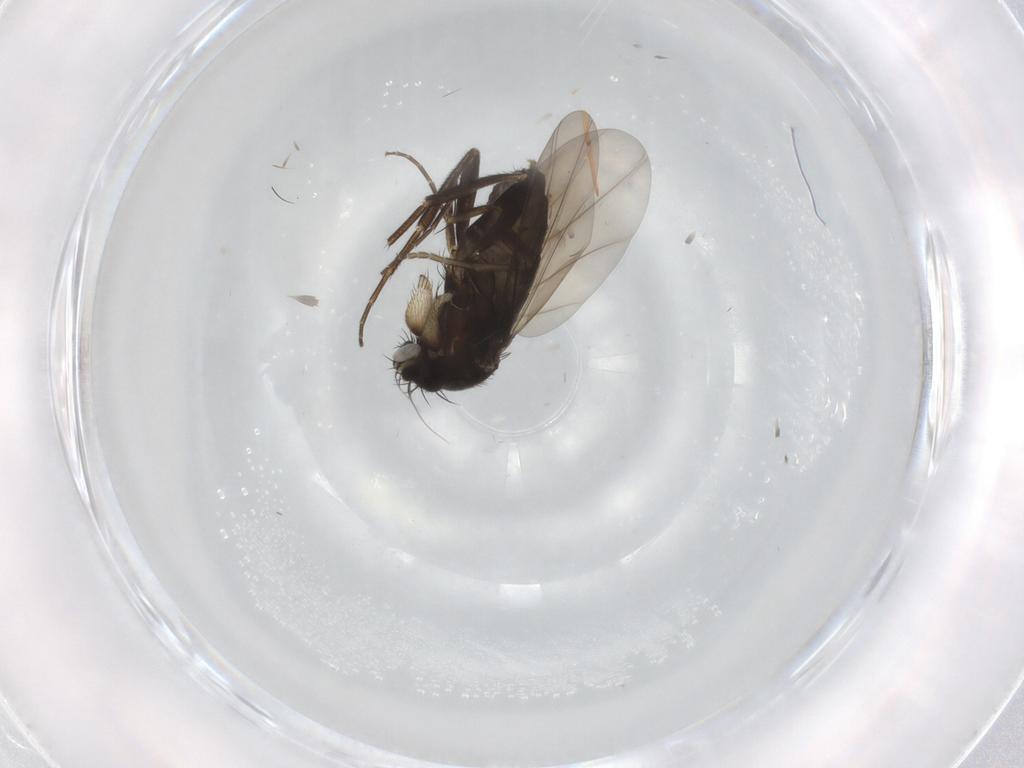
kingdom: Animalia
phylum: Arthropoda
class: Insecta
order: Diptera
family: Phoridae
